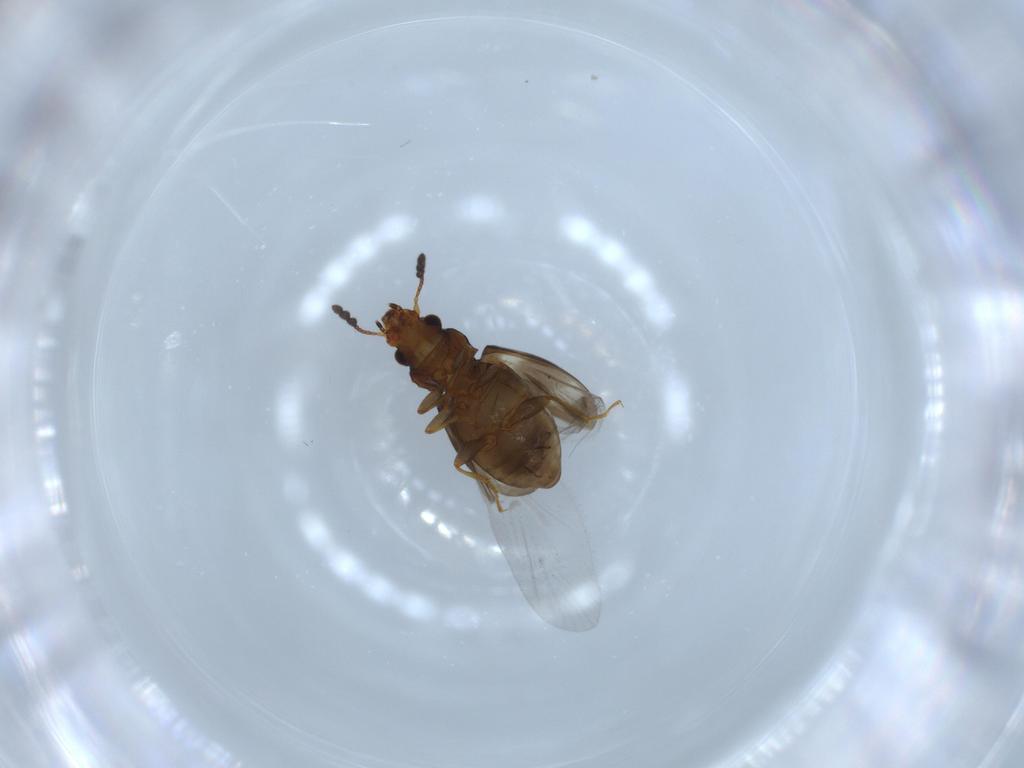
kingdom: Animalia
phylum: Arthropoda
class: Insecta
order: Coleoptera
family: Salpingidae
